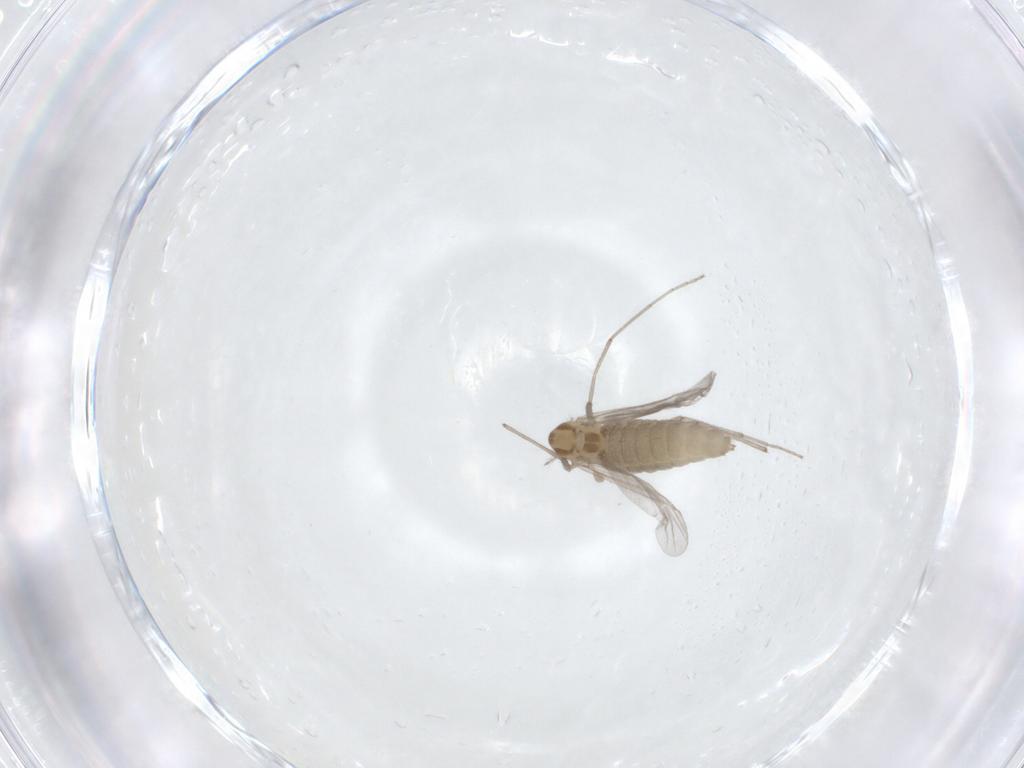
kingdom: Animalia
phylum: Arthropoda
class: Insecta
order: Diptera
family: Chironomidae
